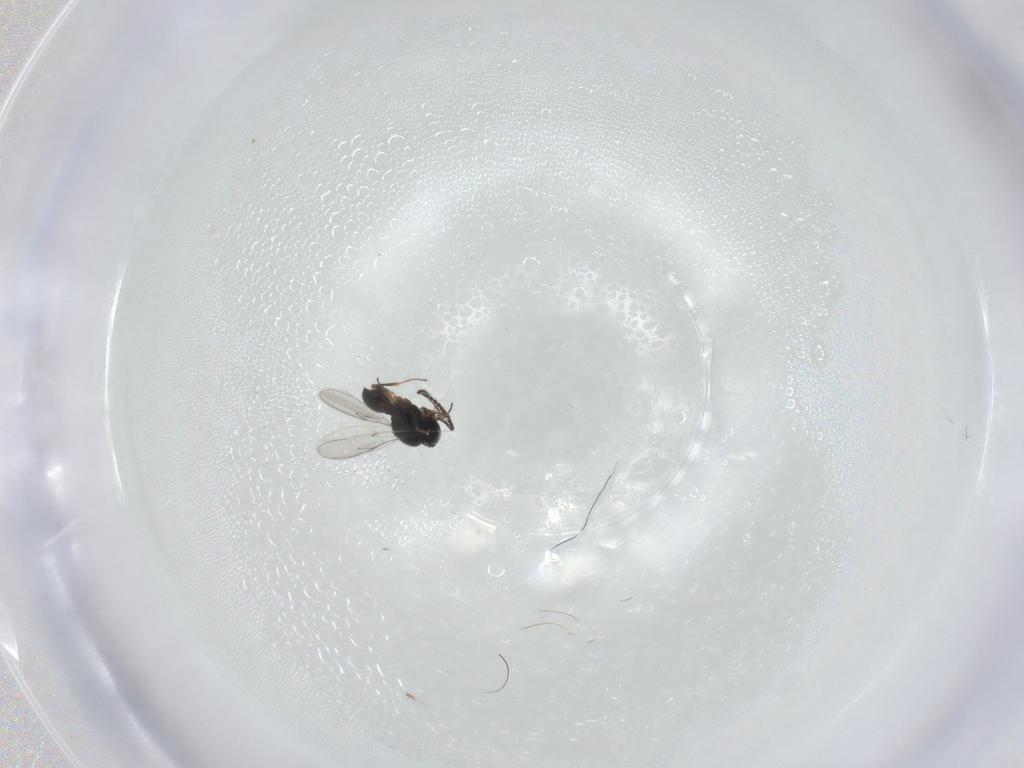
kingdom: Animalia
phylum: Arthropoda
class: Insecta
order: Hymenoptera
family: Scelionidae
